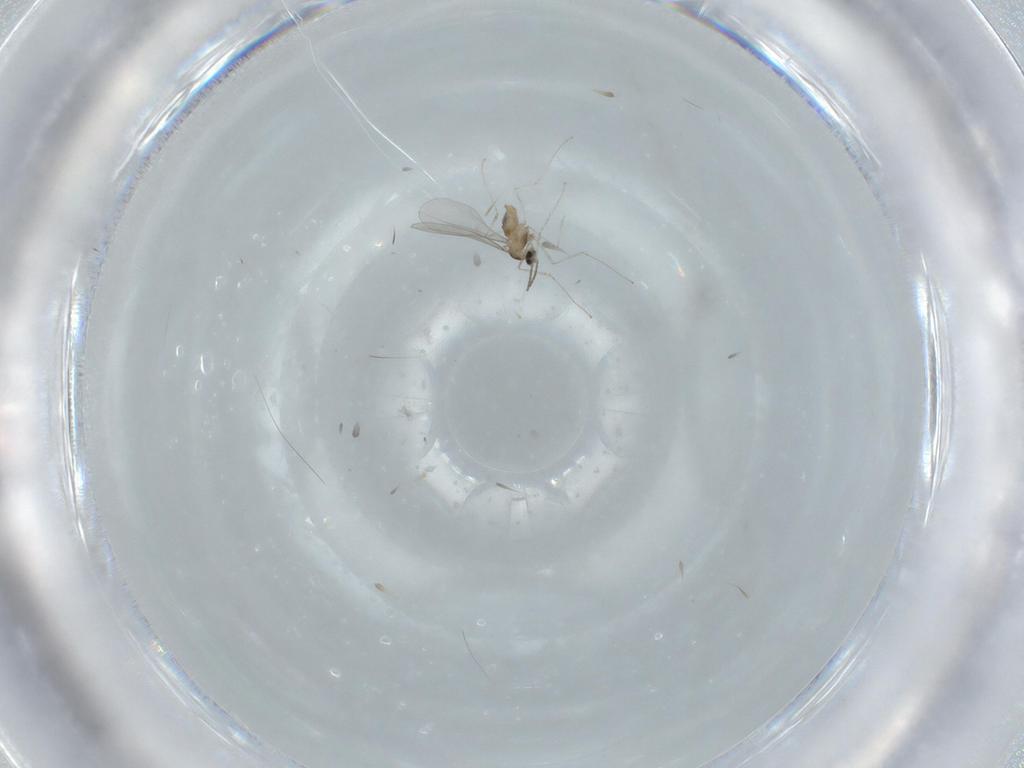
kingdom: Animalia
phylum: Arthropoda
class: Insecta
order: Diptera
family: Sciaridae
